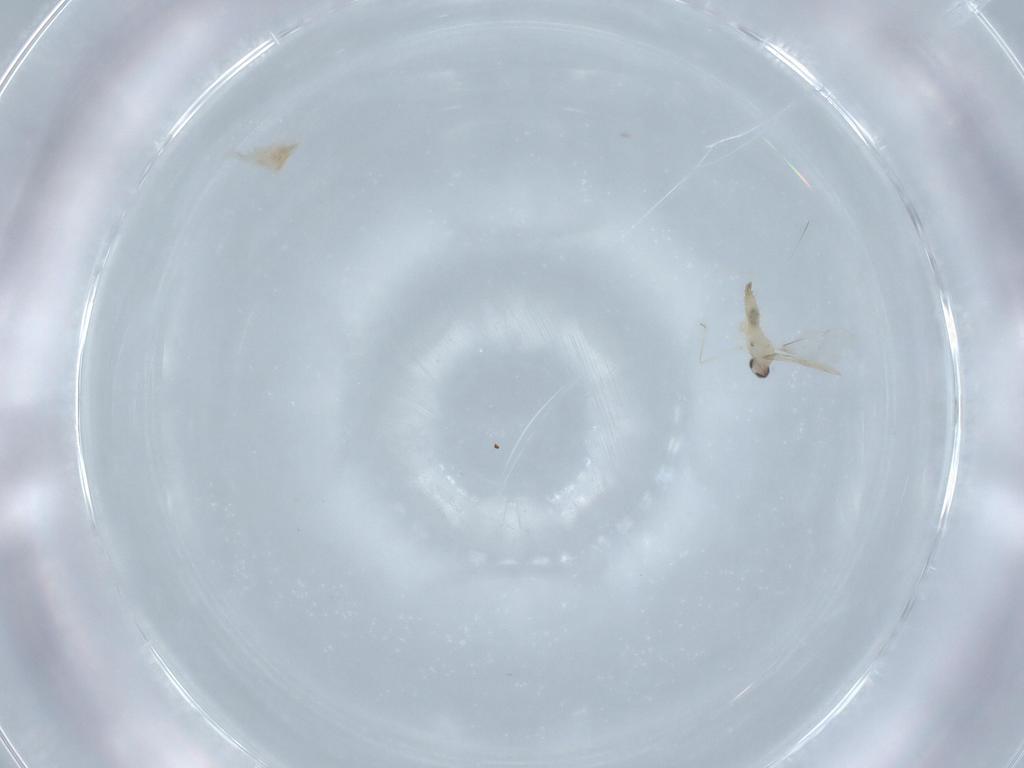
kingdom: Animalia
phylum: Arthropoda
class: Insecta
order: Diptera
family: Cecidomyiidae
